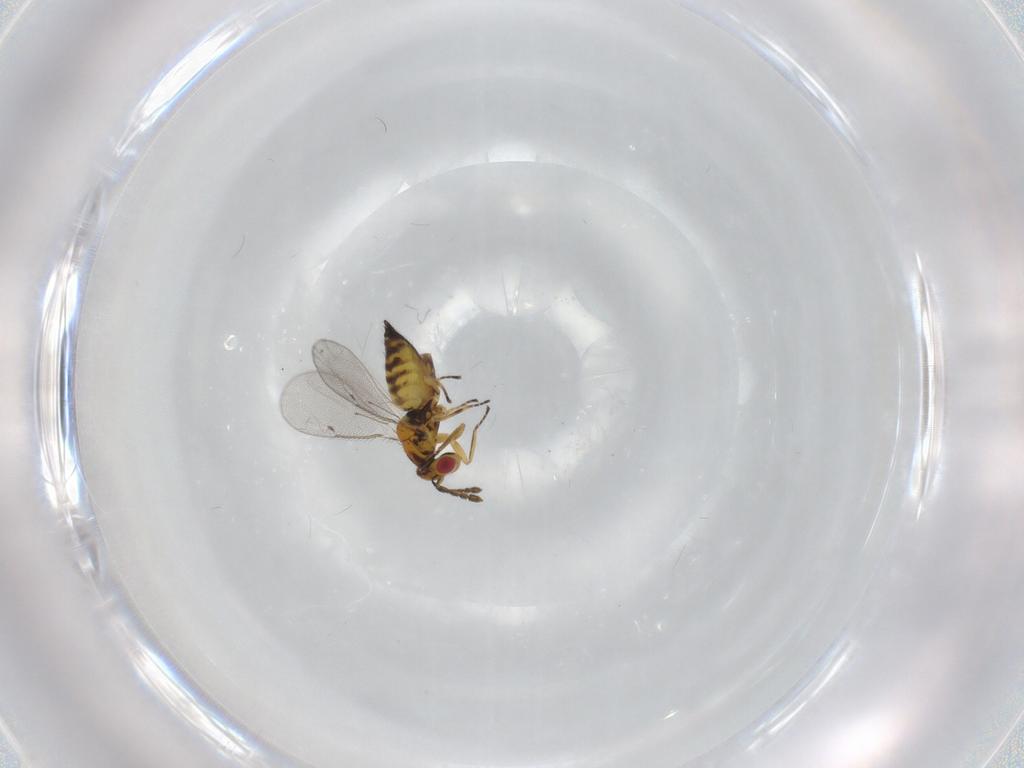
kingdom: Animalia
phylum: Arthropoda
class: Insecta
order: Hymenoptera
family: Eulophidae
